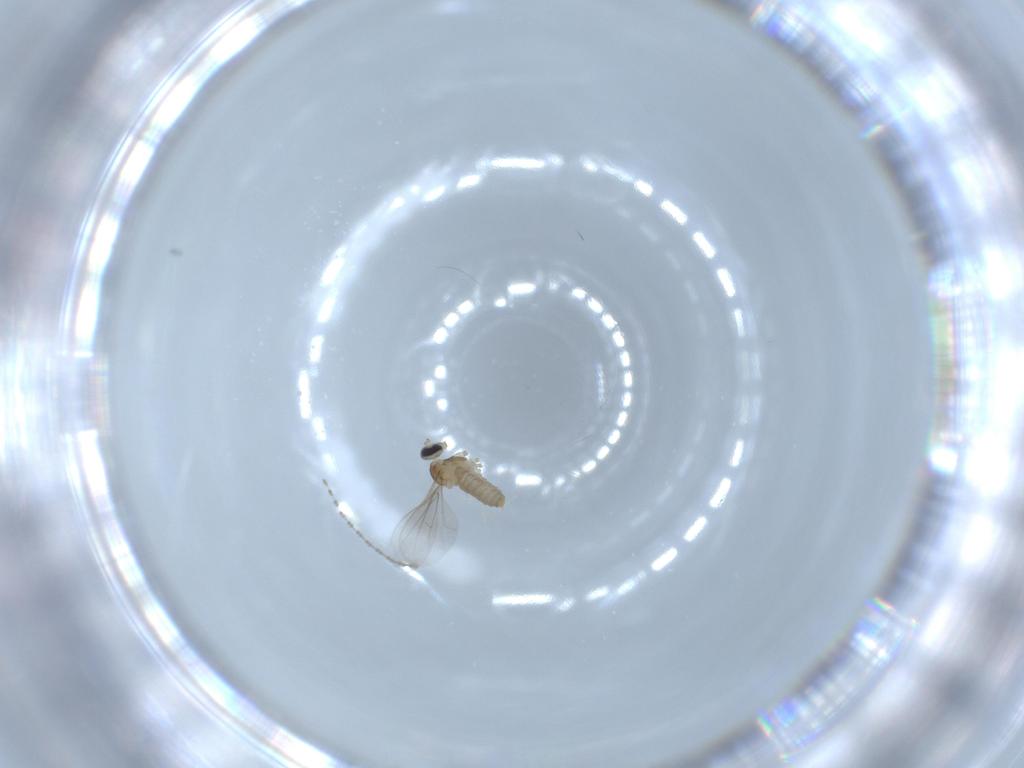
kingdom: Animalia
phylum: Arthropoda
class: Insecta
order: Diptera
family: Cecidomyiidae
